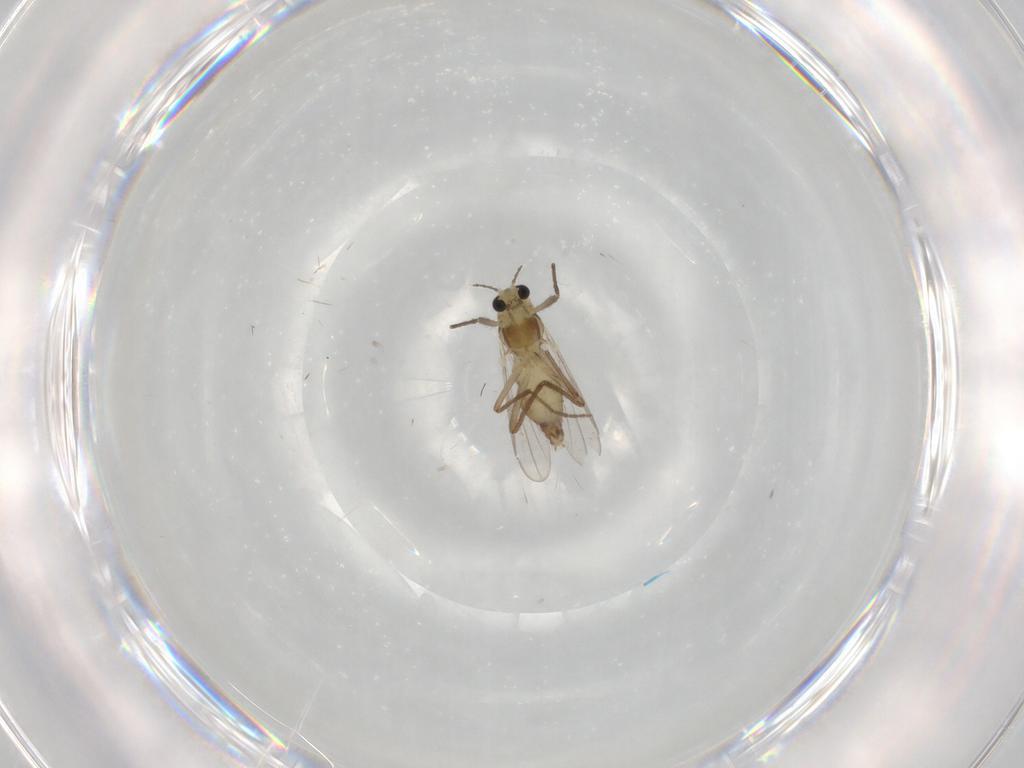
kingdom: Animalia
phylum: Arthropoda
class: Insecta
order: Diptera
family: Chironomidae
